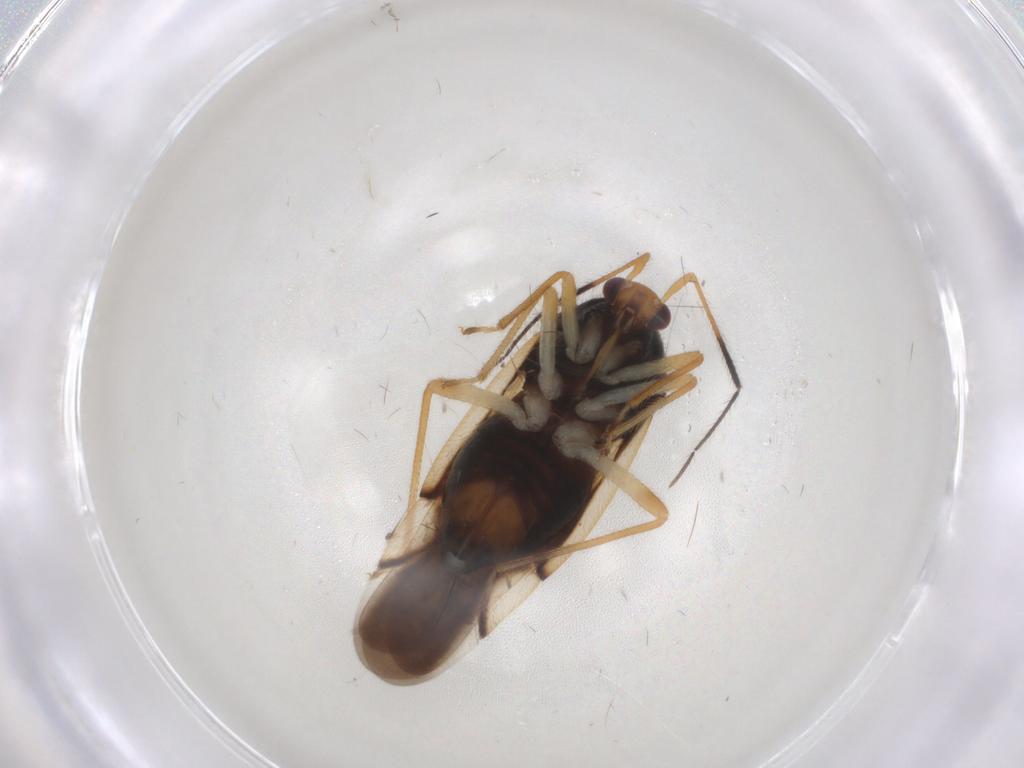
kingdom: Animalia
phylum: Arthropoda
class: Insecta
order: Hemiptera
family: Miridae
